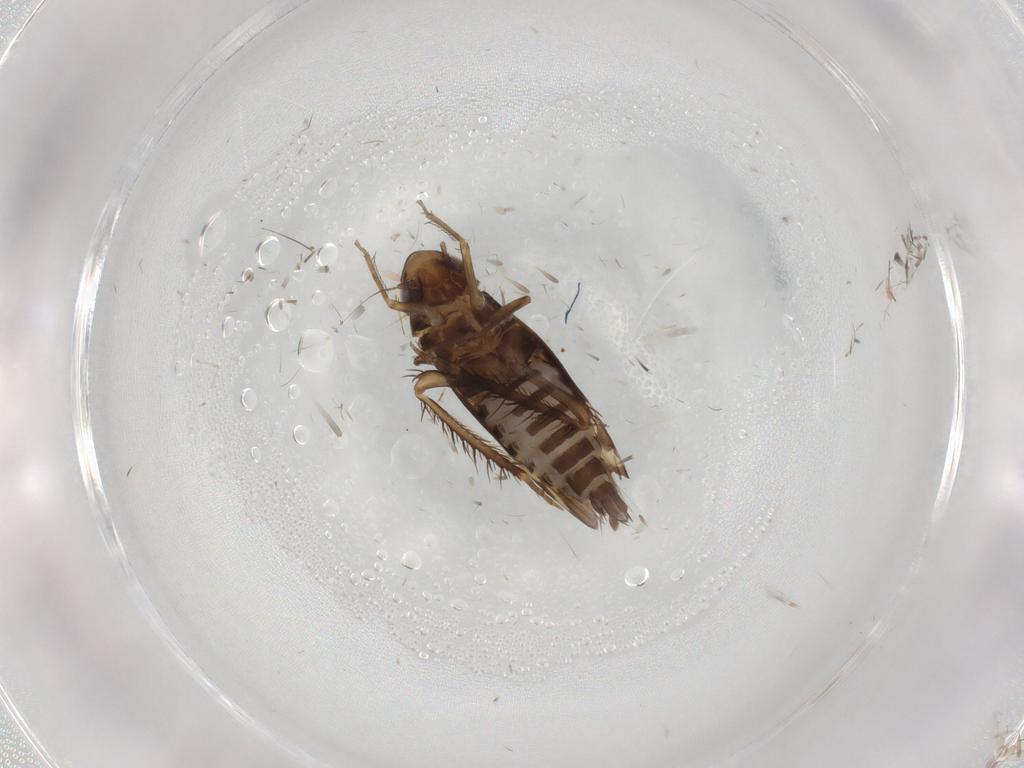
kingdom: Animalia
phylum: Arthropoda
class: Insecta
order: Hemiptera
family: Cicadellidae
